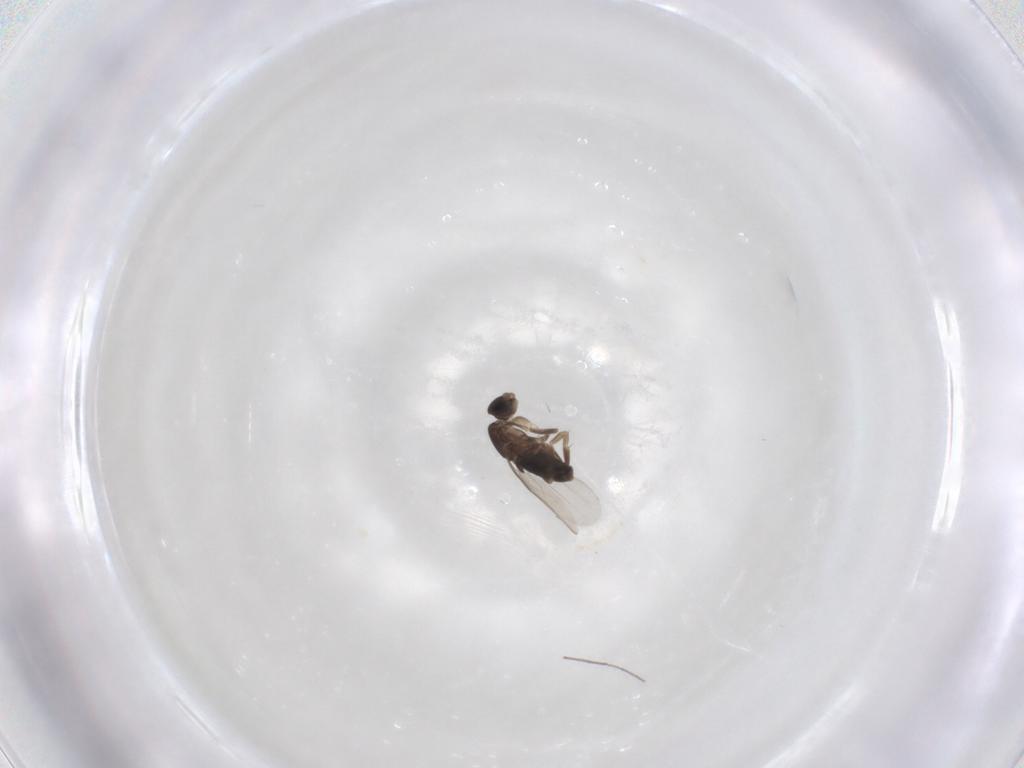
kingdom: Animalia
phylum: Arthropoda
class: Insecta
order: Diptera
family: Phoridae
